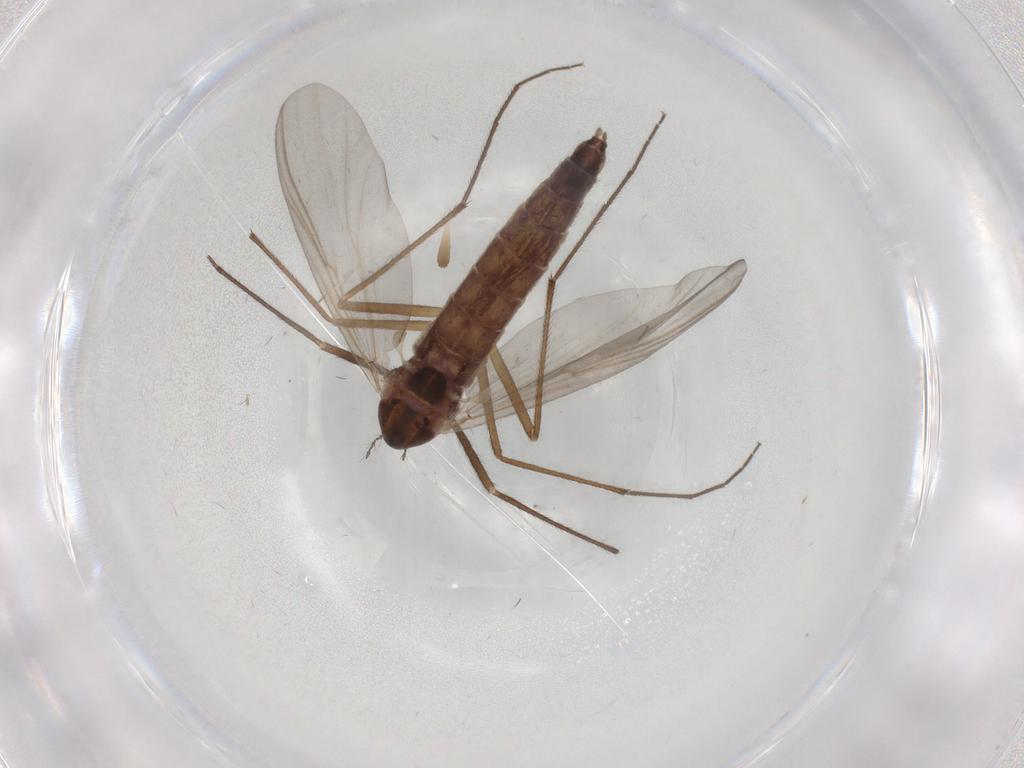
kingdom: Animalia
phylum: Arthropoda
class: Insecta
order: Diptera
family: Chironomidae
